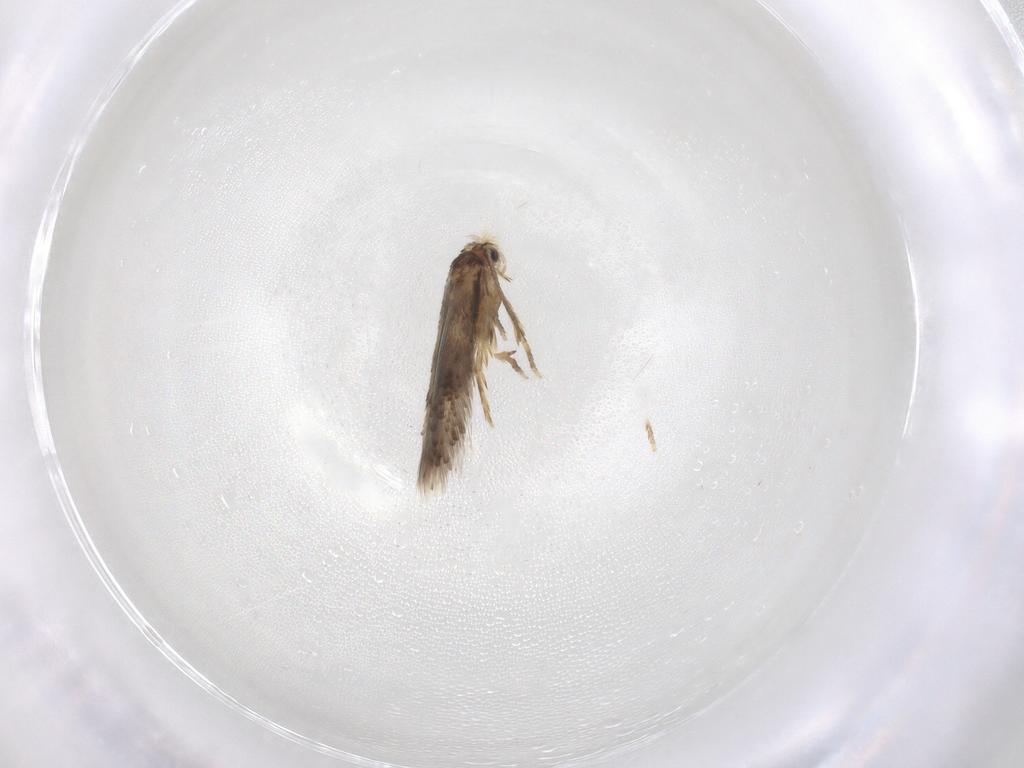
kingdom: Animalia
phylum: Arthropoda
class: Insecta
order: Lepidoptera
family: Nepticulidae
